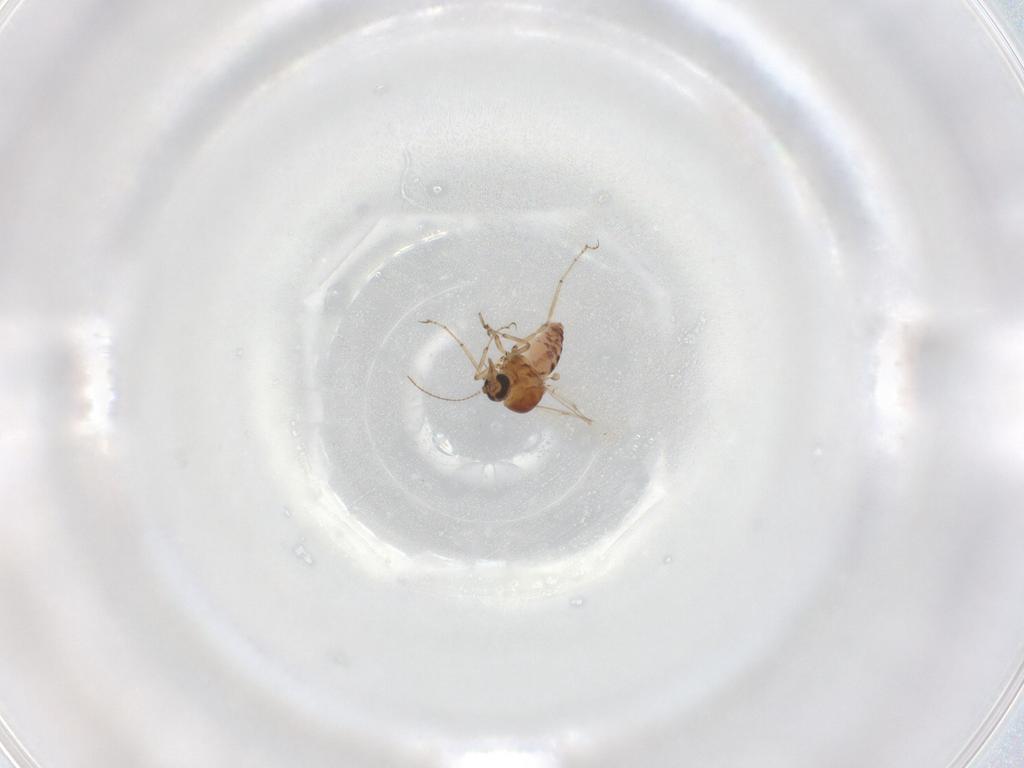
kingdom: Animalia
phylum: Arthropoda
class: Insecta
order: Diptera
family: Ceratopogonidae
